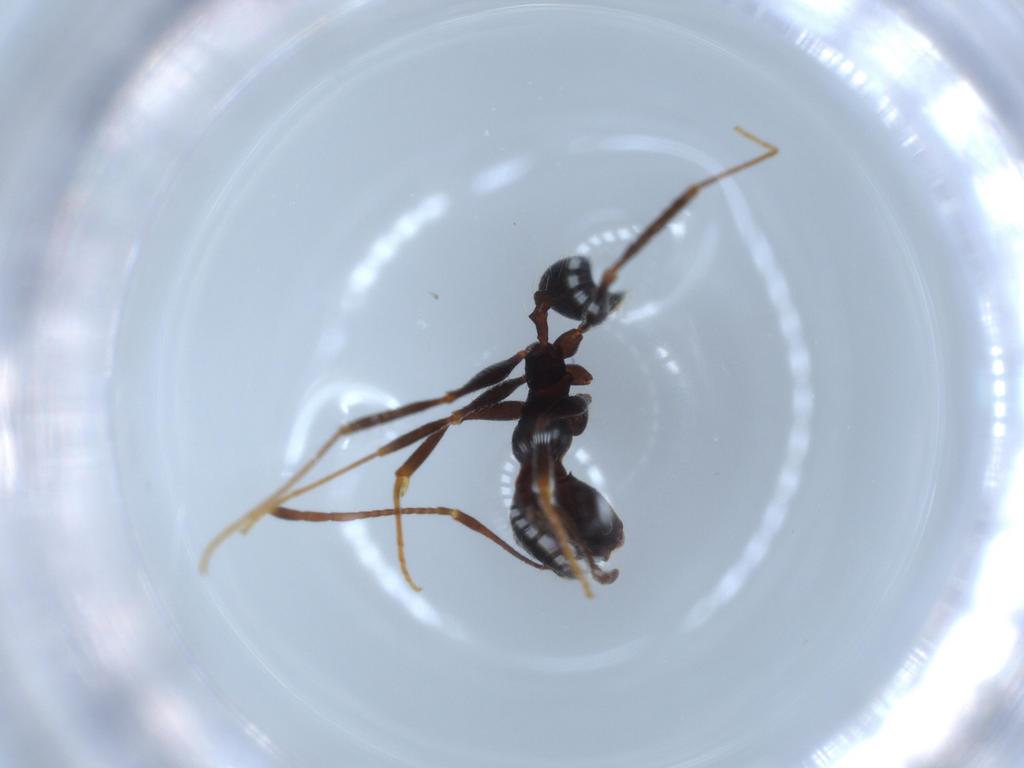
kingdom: Animalia
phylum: Arthropoda
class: Insecta
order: Hymenoptera
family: Formicidae
